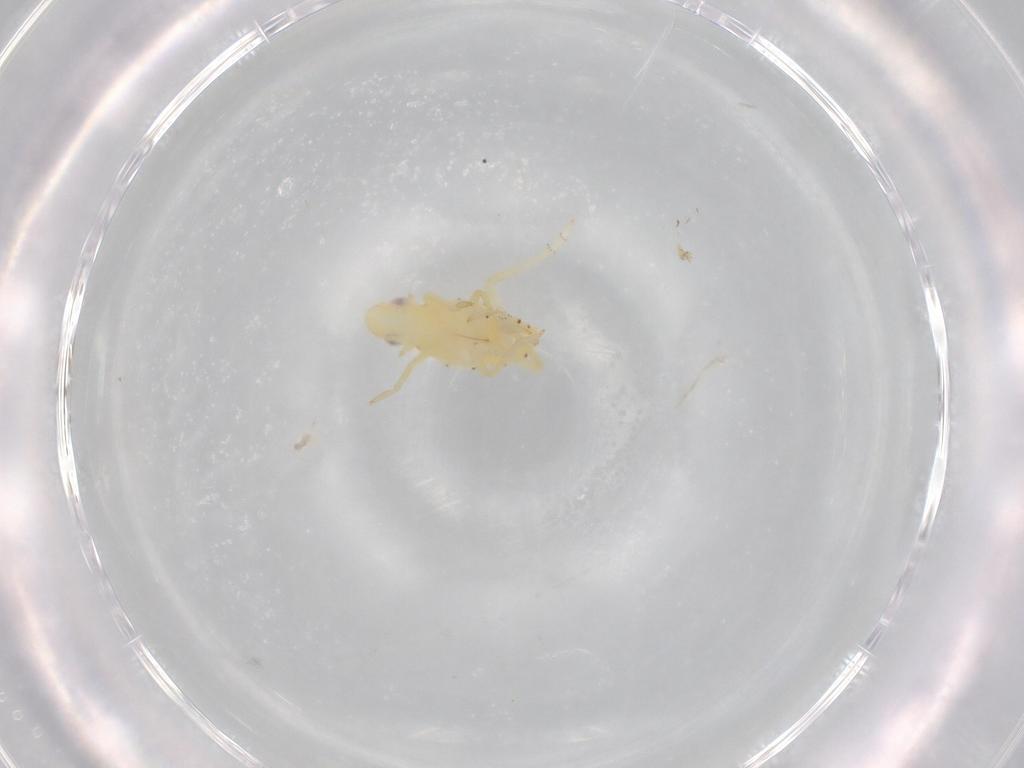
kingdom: Animalia
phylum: Arthropoda
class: Insecta
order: Hemiptera
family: Tropiduchidae
